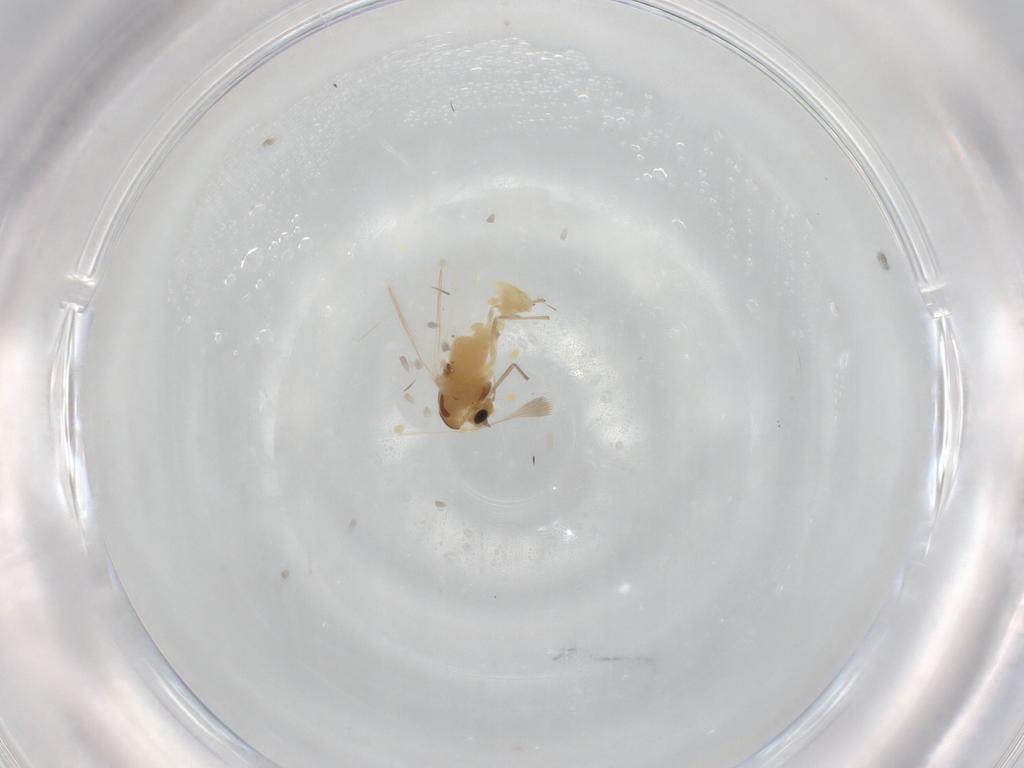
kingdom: Animalia
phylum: Arthropoda
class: Insecta
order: Diptera
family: Chironomidae
